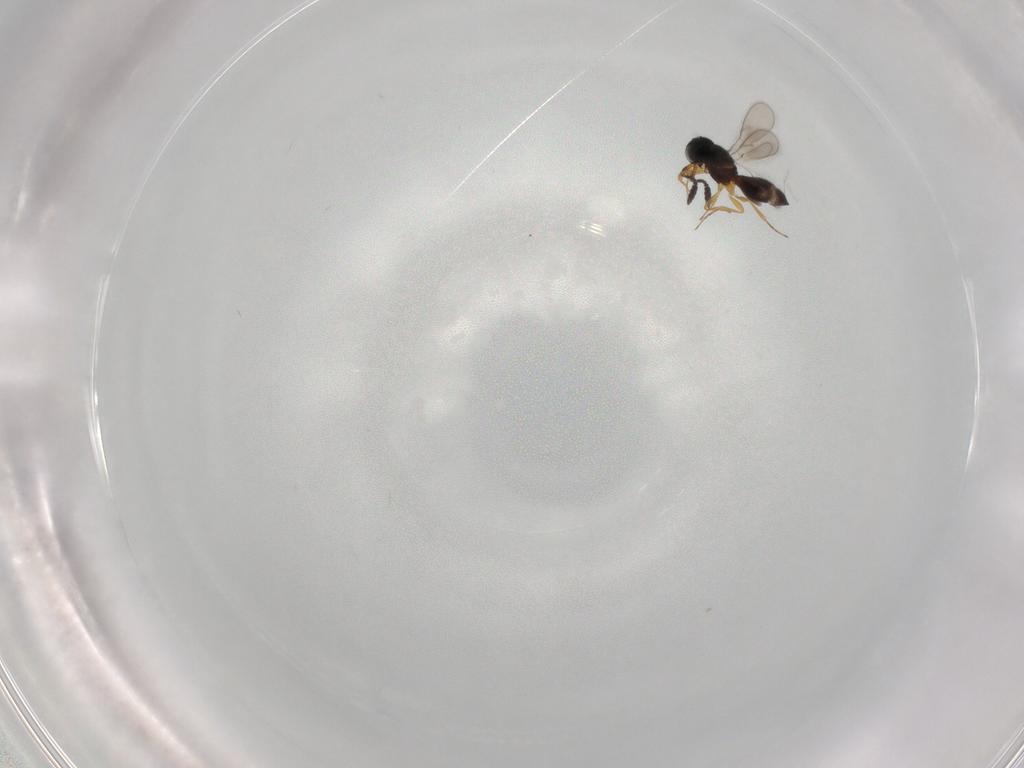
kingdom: Animalia
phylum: Arthropoda
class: Insecta
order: Hymenoptera
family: Scelionidae
